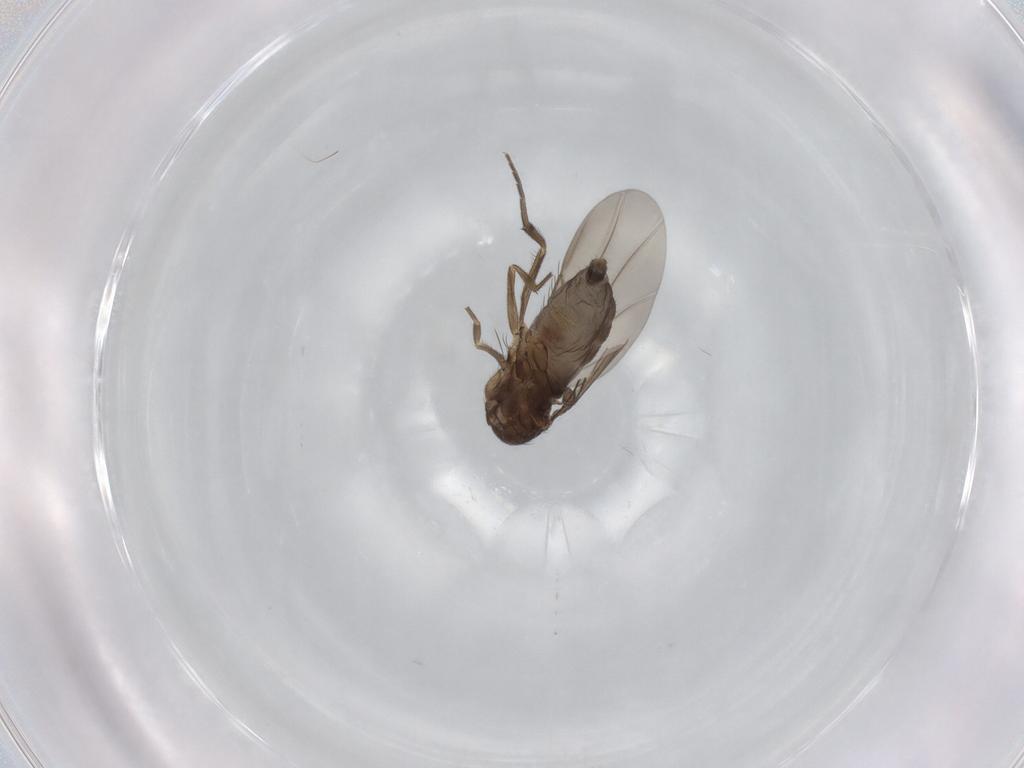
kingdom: Animalia
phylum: Arthropoda
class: Insecta
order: Diptera
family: Phoridae
